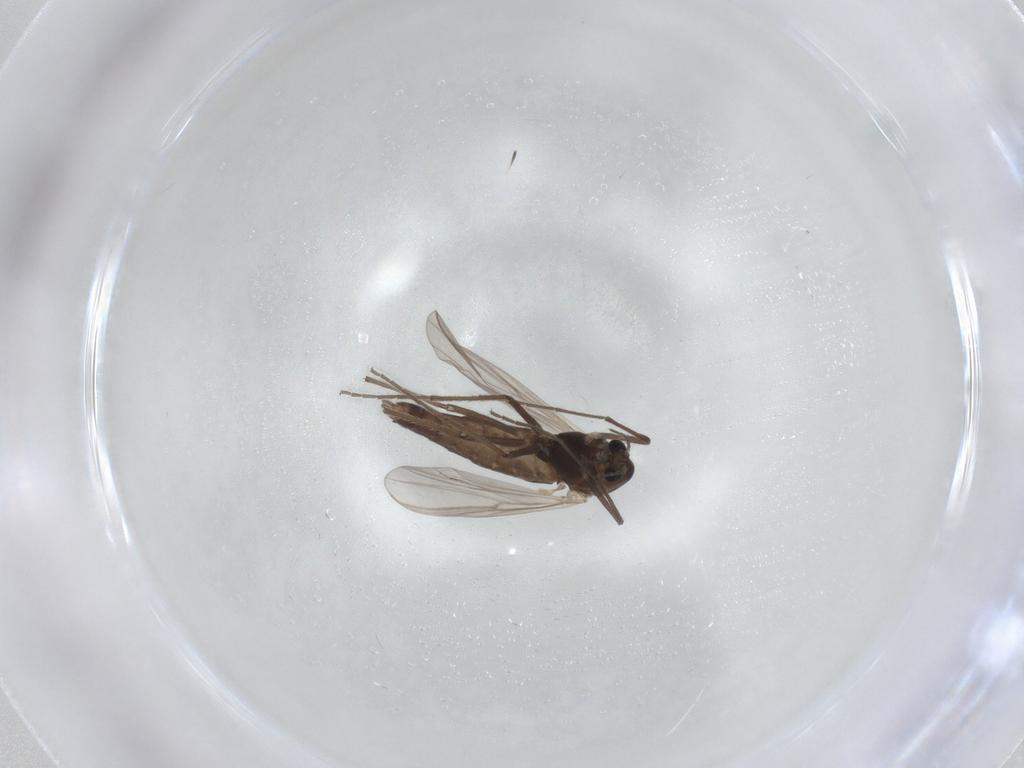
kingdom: Animalia
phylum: Arthropoda
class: Insecta
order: Diptera
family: Chironomidae
